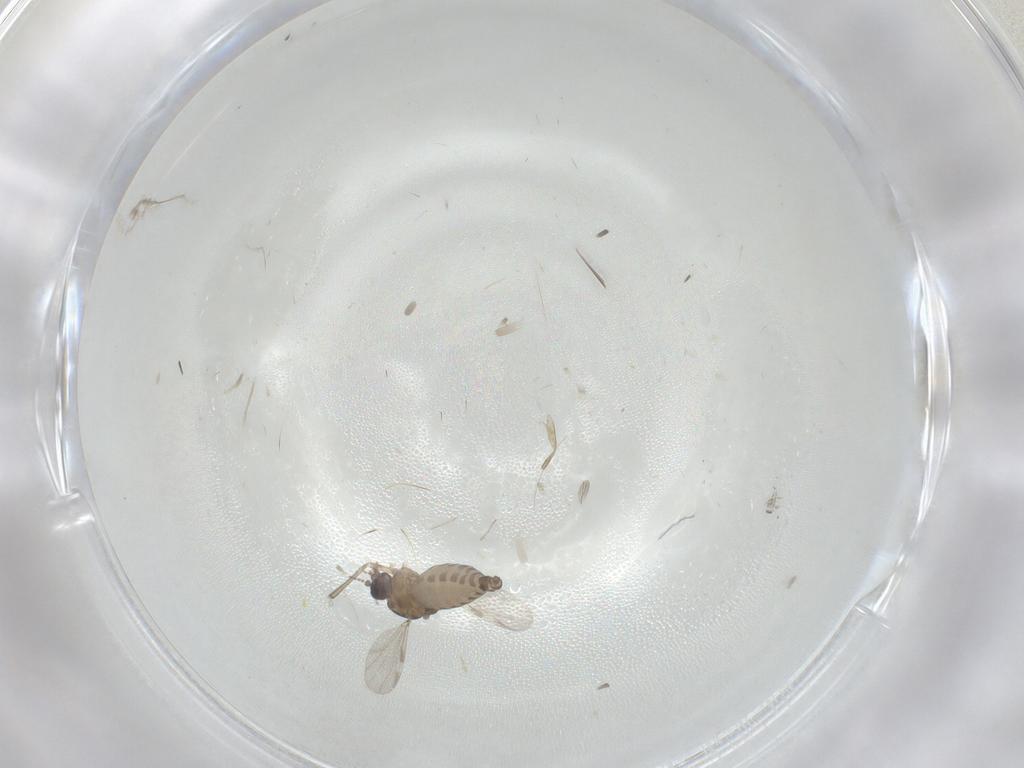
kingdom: Animalia
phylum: Arthropoda
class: Insecta
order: Diptera
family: Ceratopogonidae
